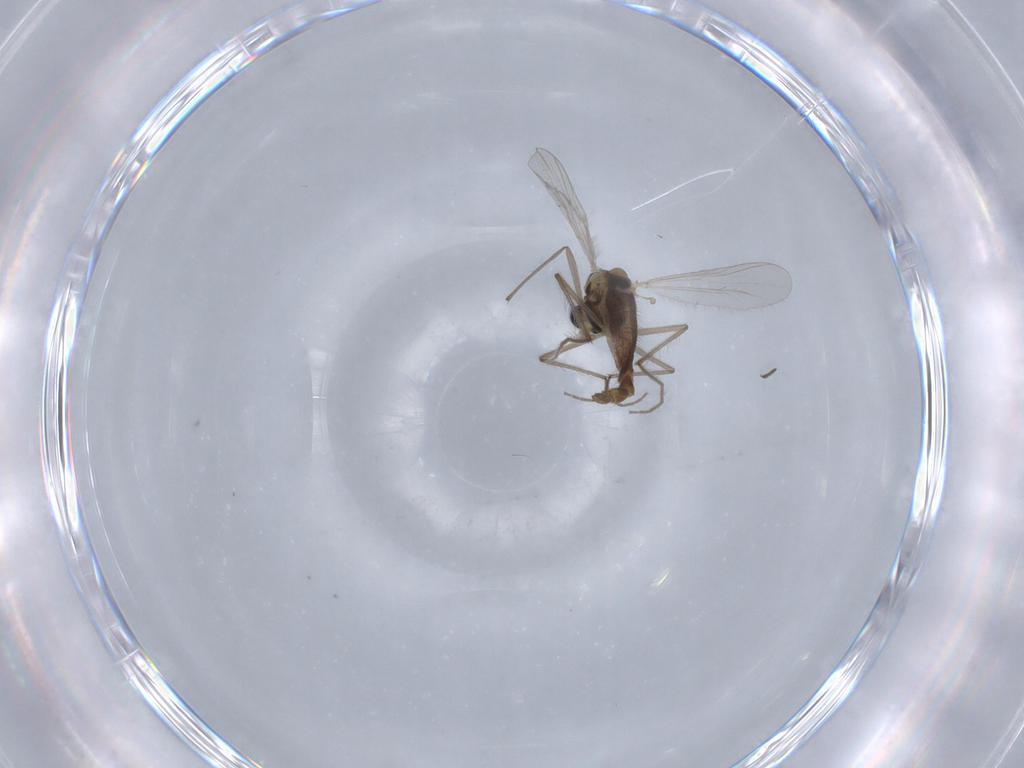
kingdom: Animalia
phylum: Arthropoda
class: Insecta
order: Diptera
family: Chironomidae
